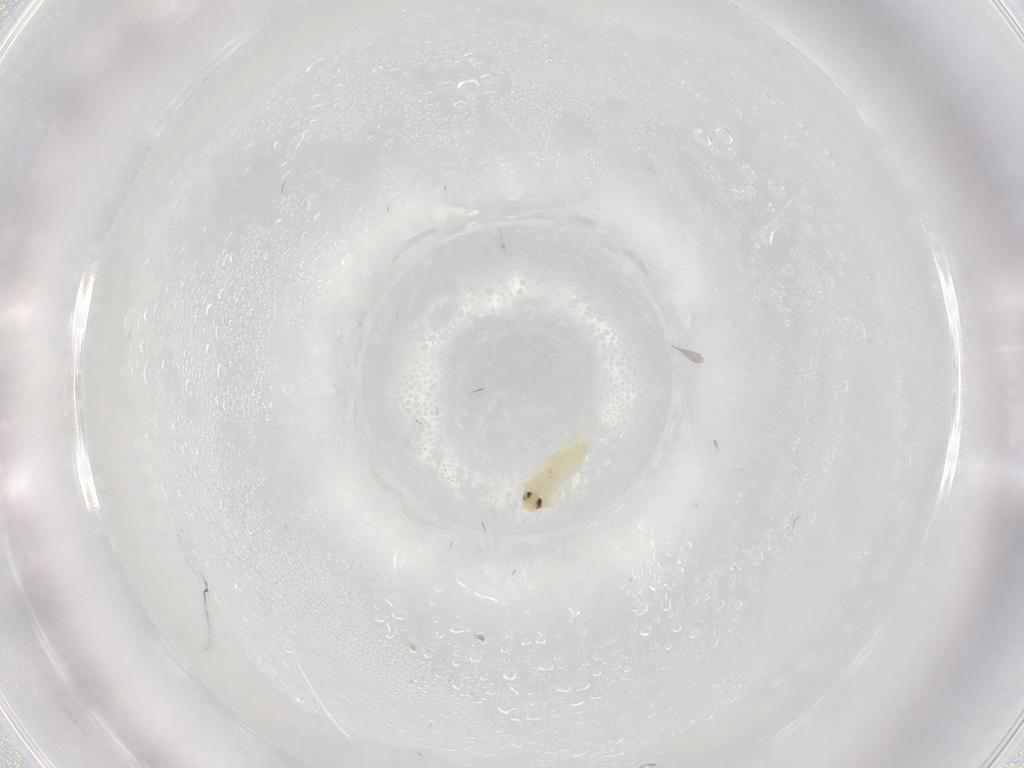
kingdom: Animalia
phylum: Arthropoda
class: Insecta
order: Hemiptera
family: Aleyrodidae
